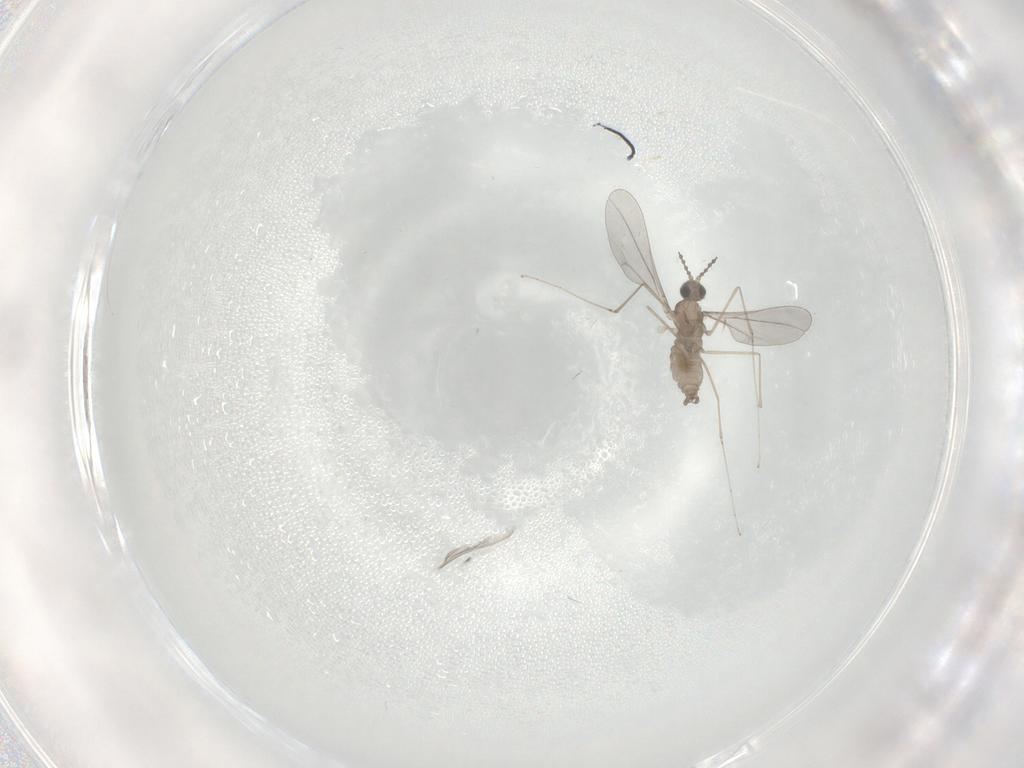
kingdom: Animalia
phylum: Arthropoda
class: Insecta
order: Diptera
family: Cecidomyiidae
